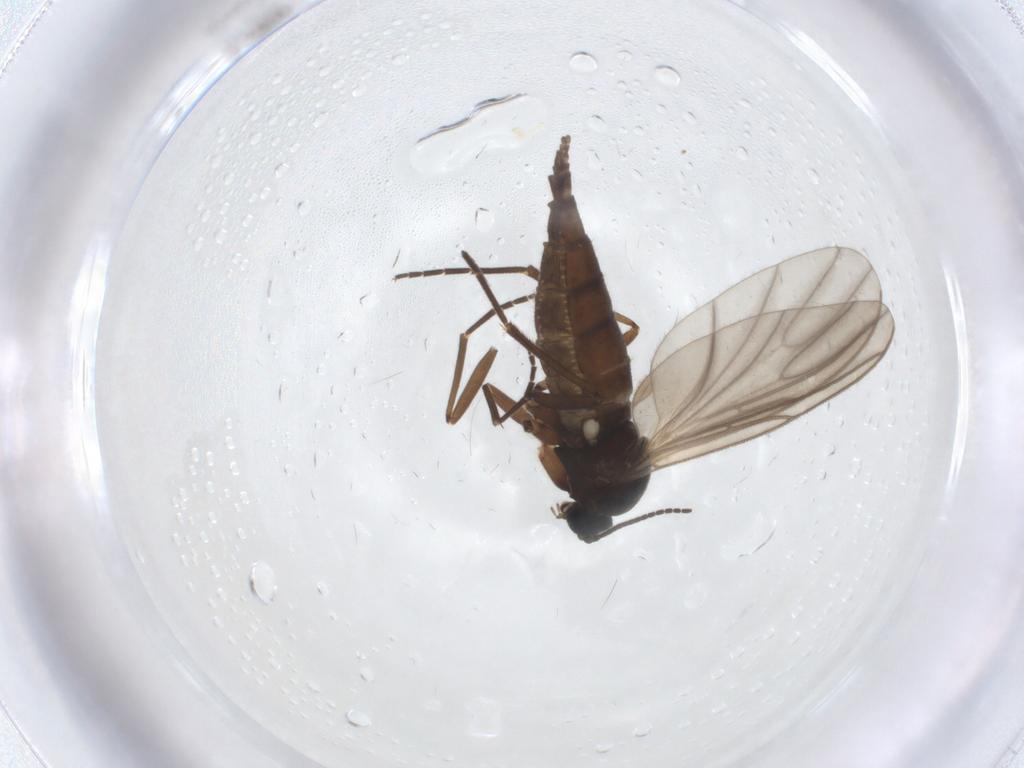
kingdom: Animalia
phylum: Arthropoda
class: Insecta
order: Diptera
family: Sciaridae
